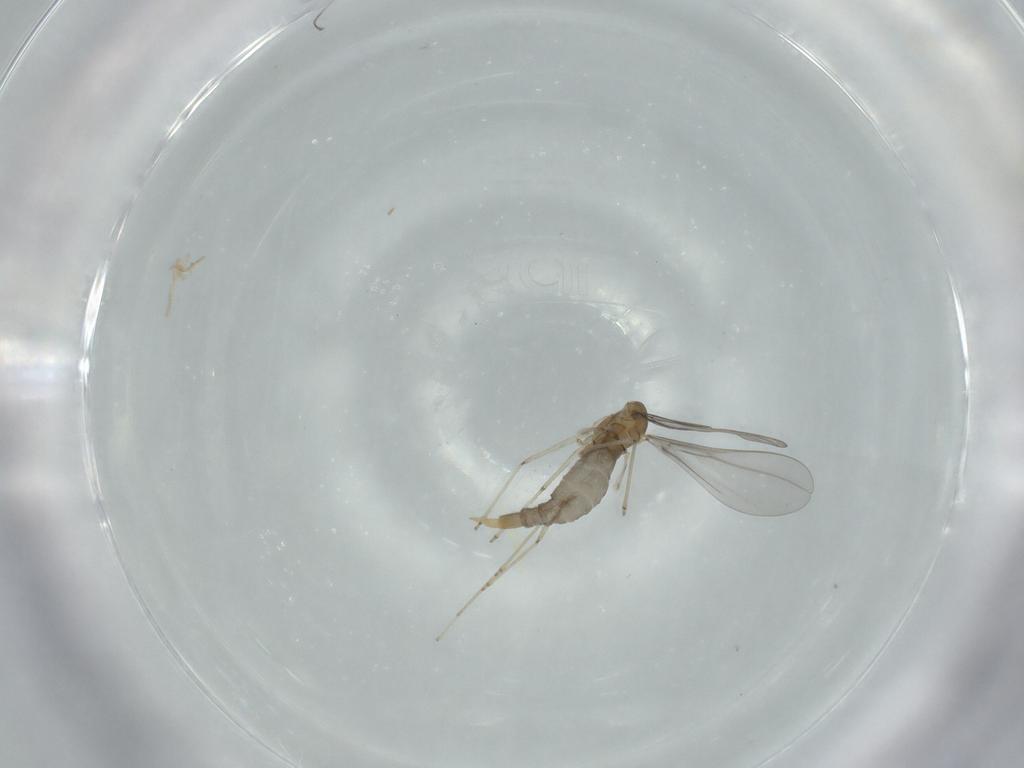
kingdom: Animalia
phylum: Arthropoda
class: Insecta
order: Diptera
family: Cecidomyiidae
